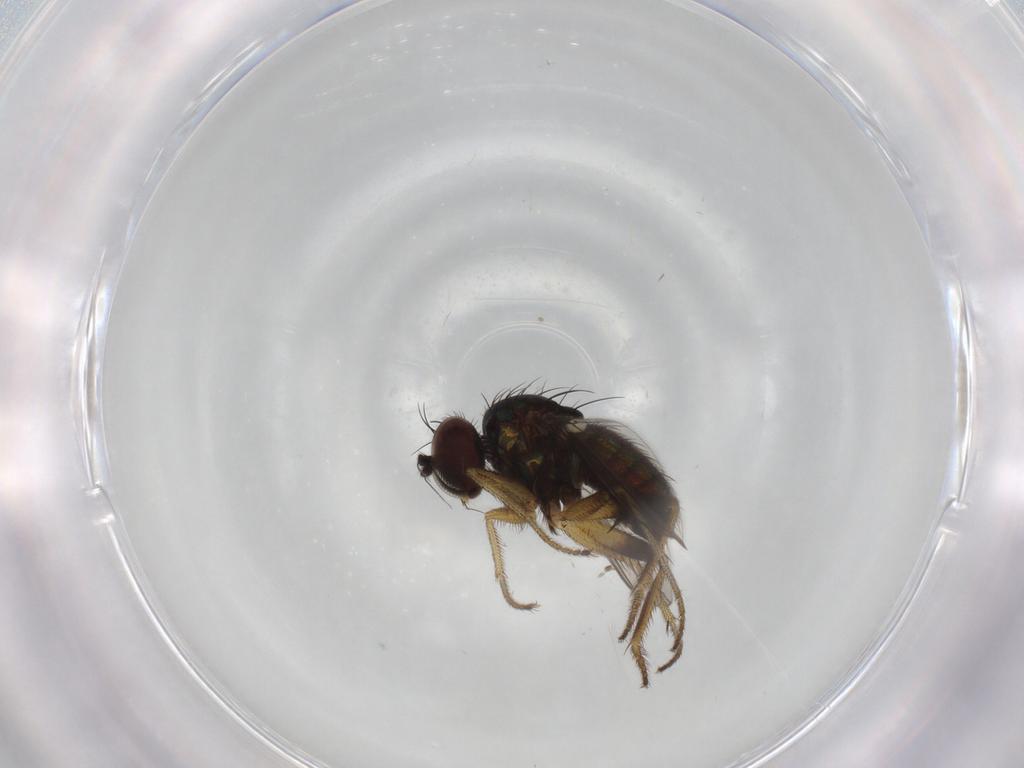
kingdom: Animalia
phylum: Arthropoda
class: Insecta
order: Diptera
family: Dolichopodidae
